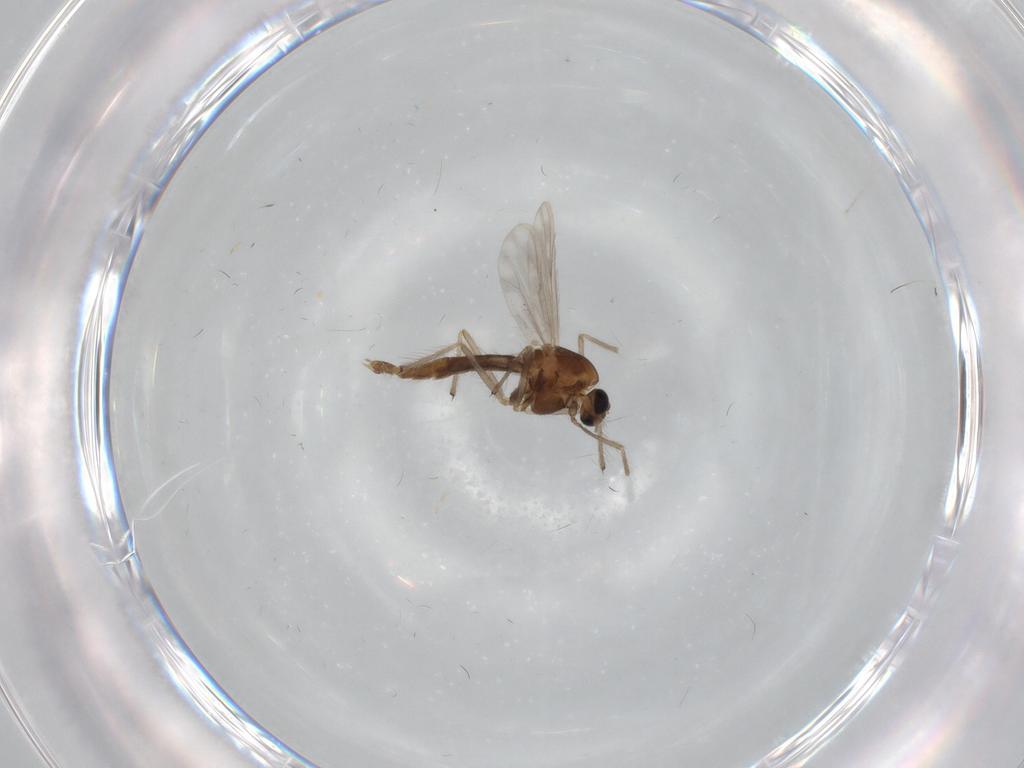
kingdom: Animalia
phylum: Arthropoda
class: Insecta
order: Diptera
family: Chironomidae
